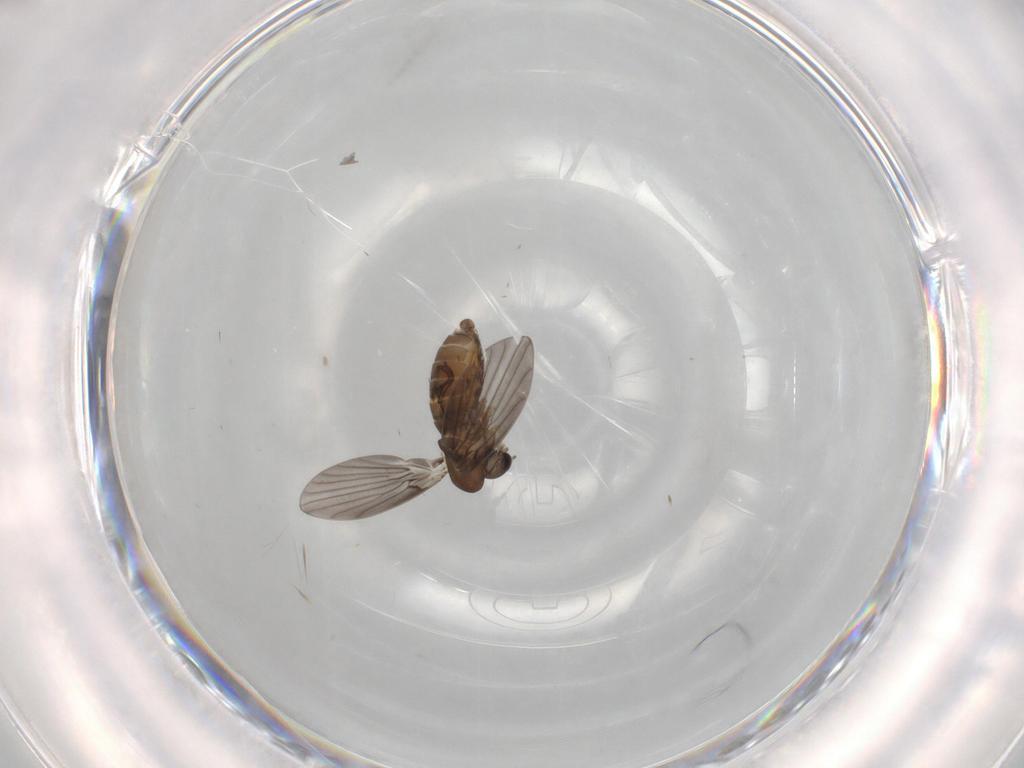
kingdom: Animalia
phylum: Arthropoda
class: Insecta
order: Diptera
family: Psychodidae
